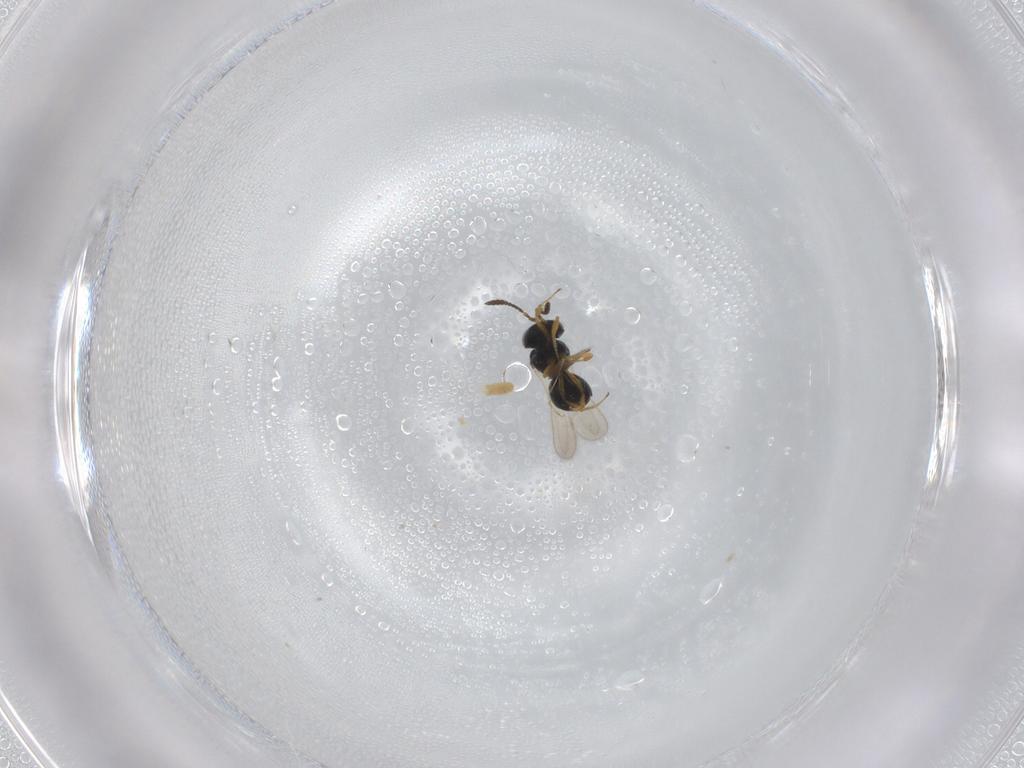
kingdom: Animalia
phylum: Arthropoda
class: Insecta
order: Hymenoptera
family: Scelionidae
